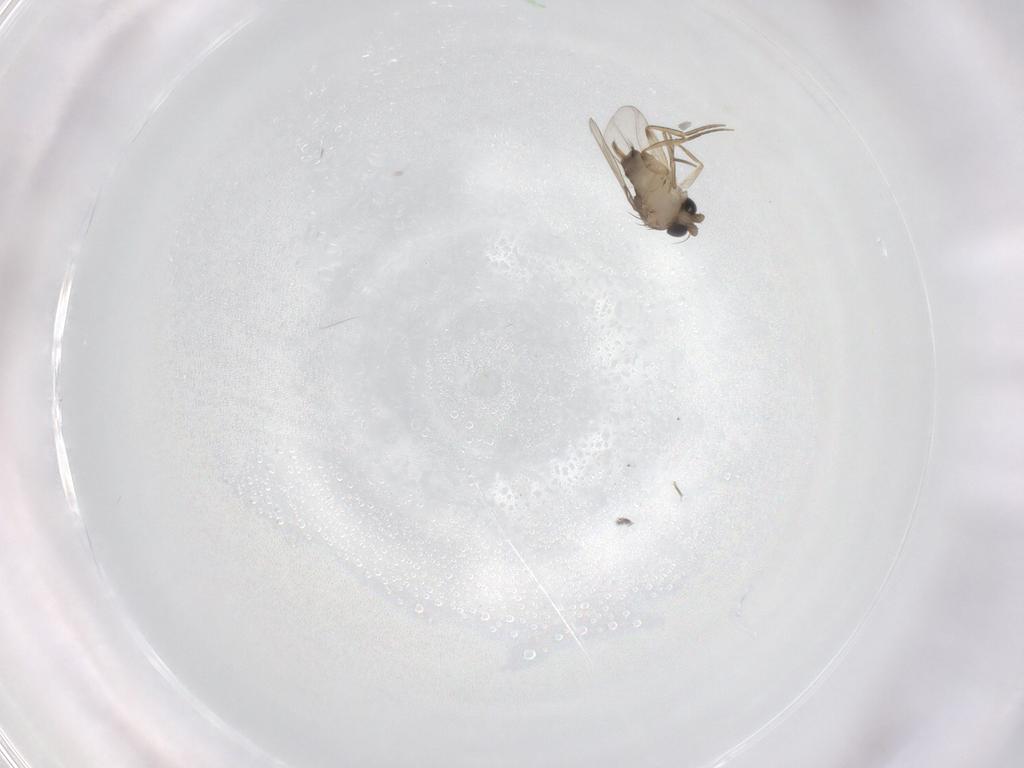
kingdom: Animalia
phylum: Arthropoda
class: Insecta
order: Diptera
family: Phoridae
